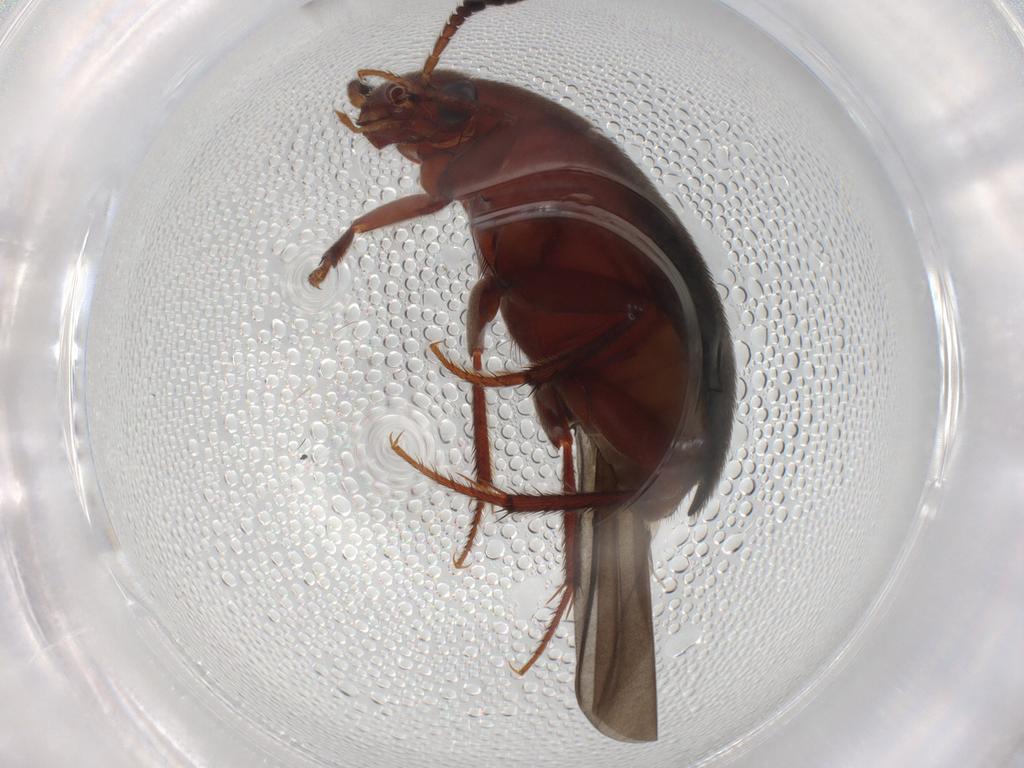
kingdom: Animalia
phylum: Arthropoda
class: Insecta
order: Coleoptera
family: Leiodidae
